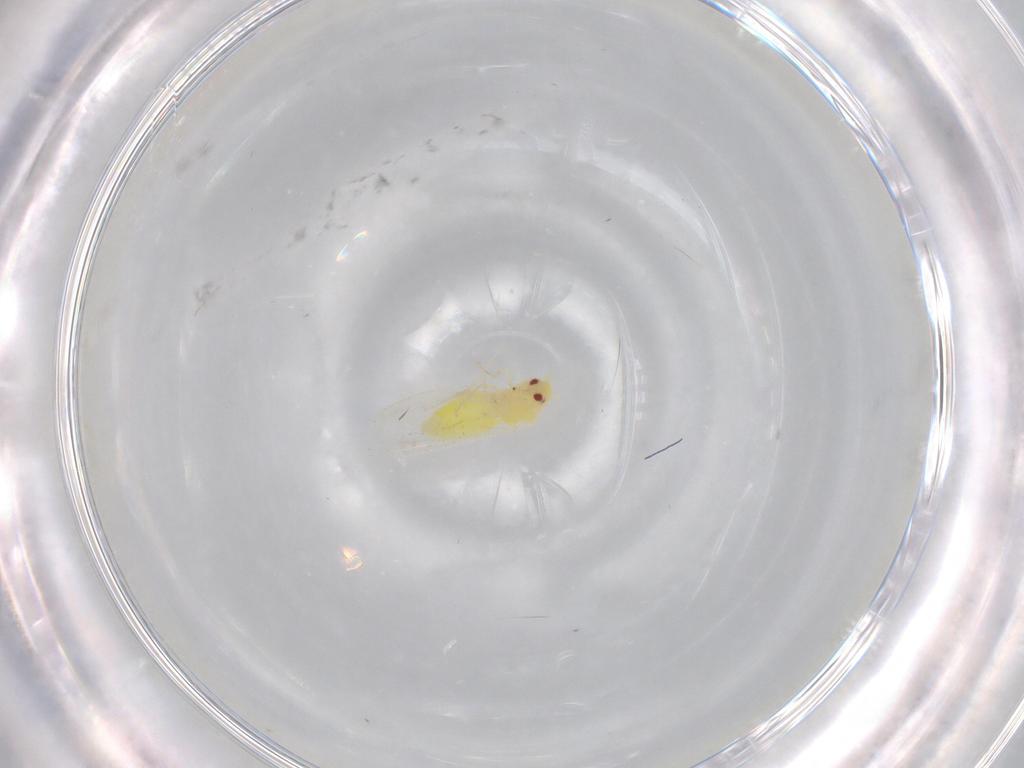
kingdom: Animalia
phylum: Arthropoda
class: Insecta
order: Hemiptera
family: Aleyrodidae
